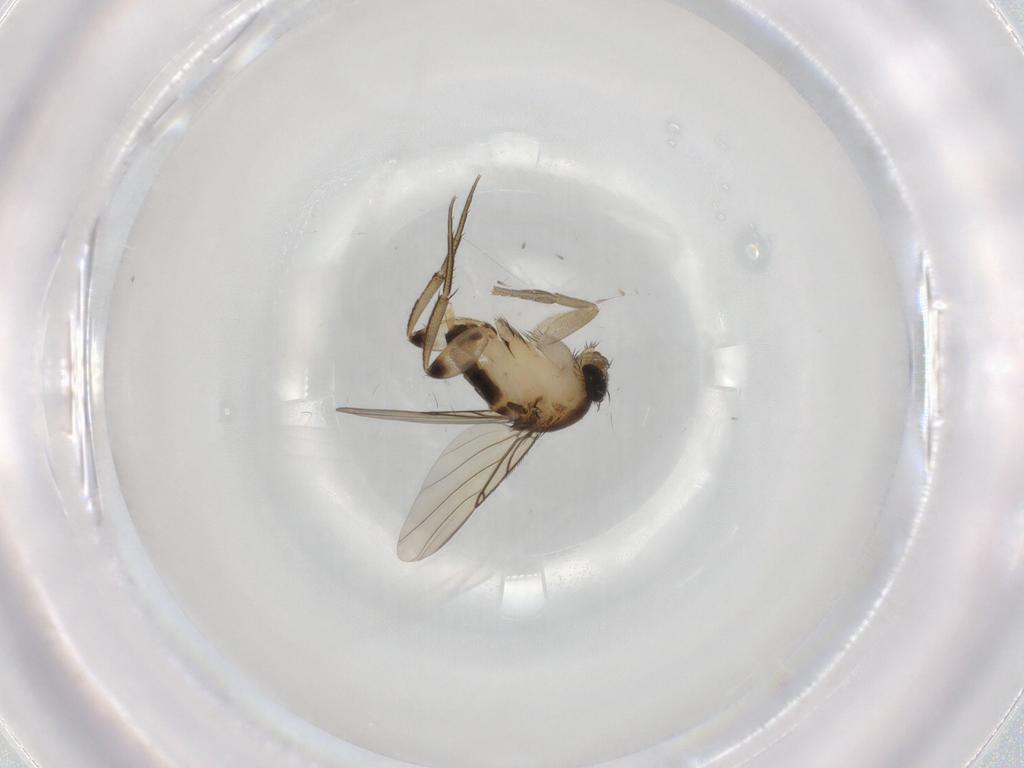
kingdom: Animalia
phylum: Arthropoda
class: Insecta
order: Diptera
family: Phoridae
